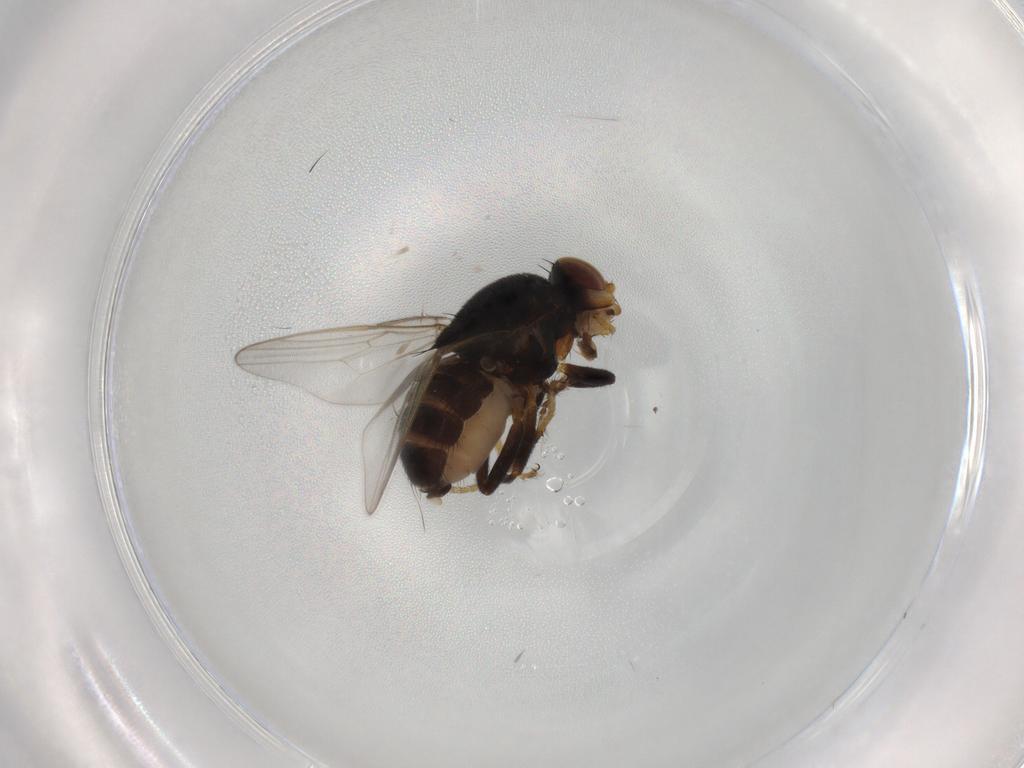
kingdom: Animalia
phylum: Arthropoda
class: Insecta
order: Diptera
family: Chloropidae
